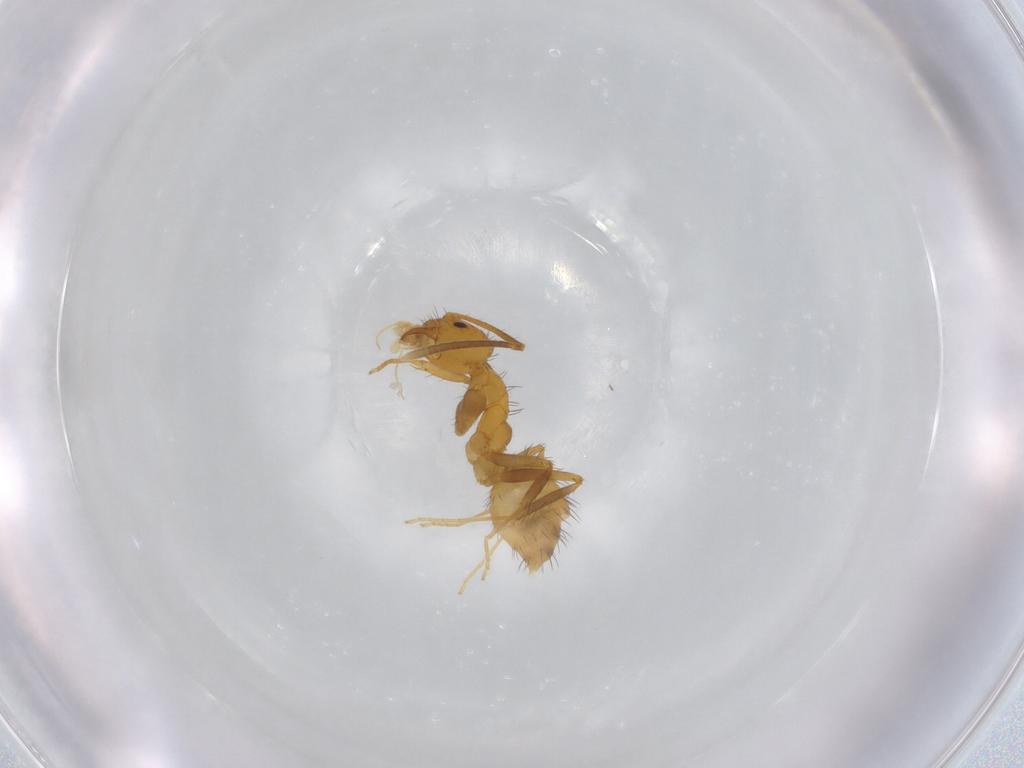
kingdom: Animalia
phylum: Arthropoda
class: Insecta
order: Hymenoptera
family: Formicidae
